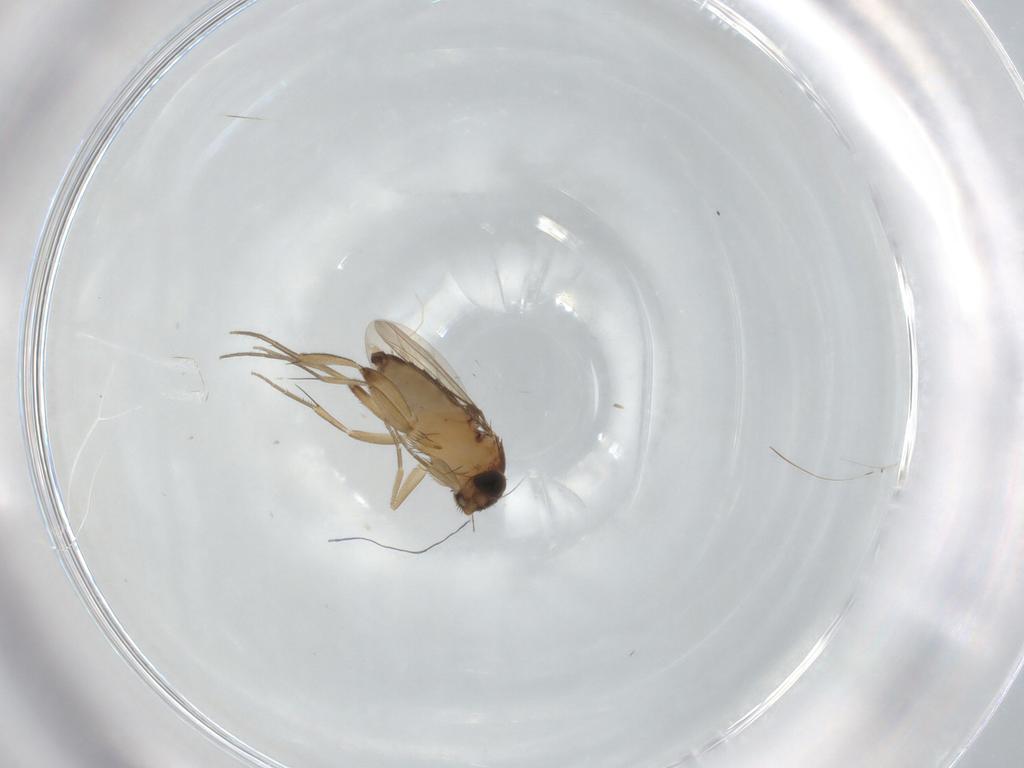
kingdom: Animalia
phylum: Arthropoda
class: Insecta
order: Diptera
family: Phoridae
